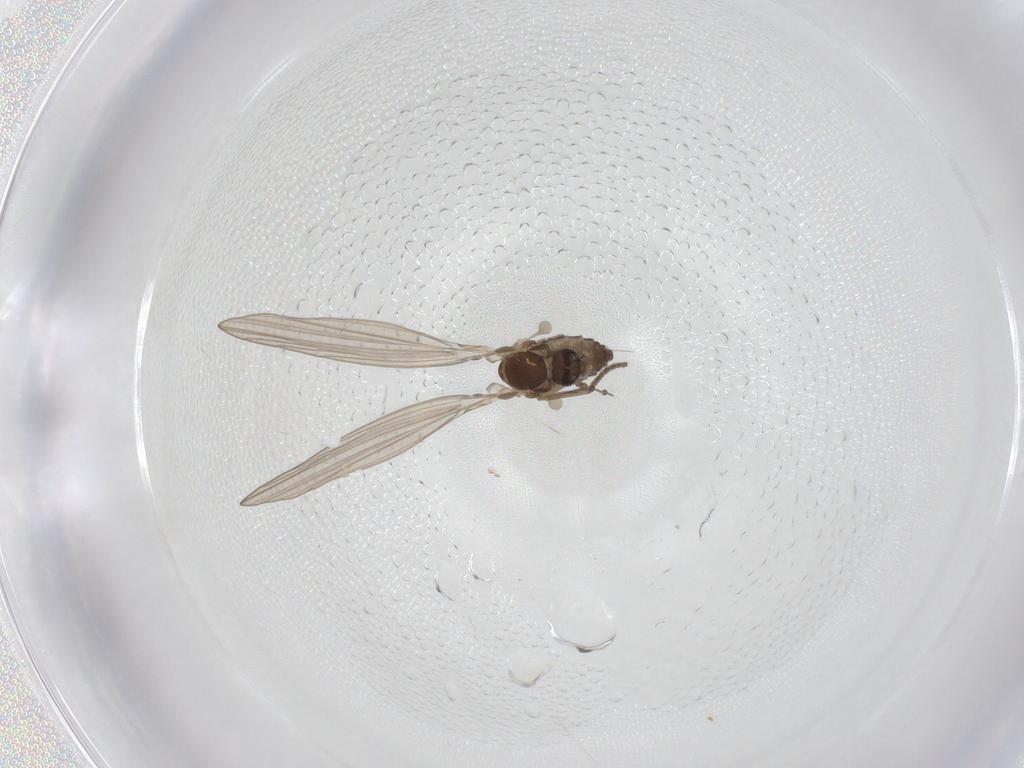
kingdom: Animalia
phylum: Arthropoda
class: Insecta
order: Diptera
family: Psychodidae
